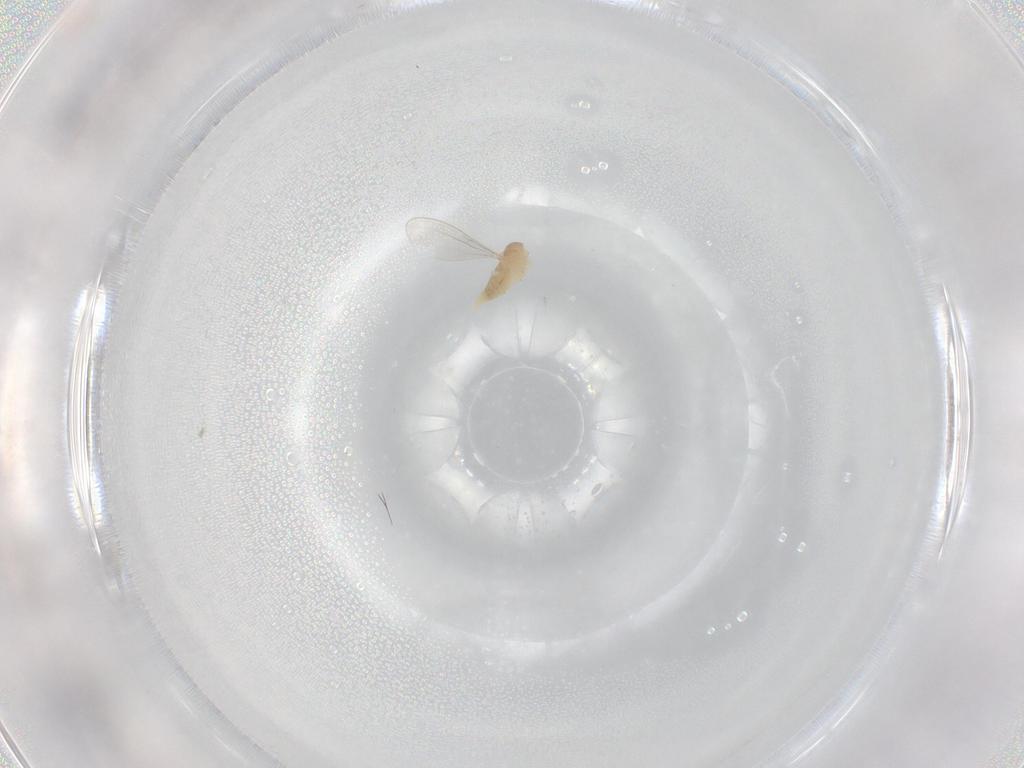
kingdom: Animalia
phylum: Arthropoda
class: Insecta
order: Diptera
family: Cecidomyiidae
